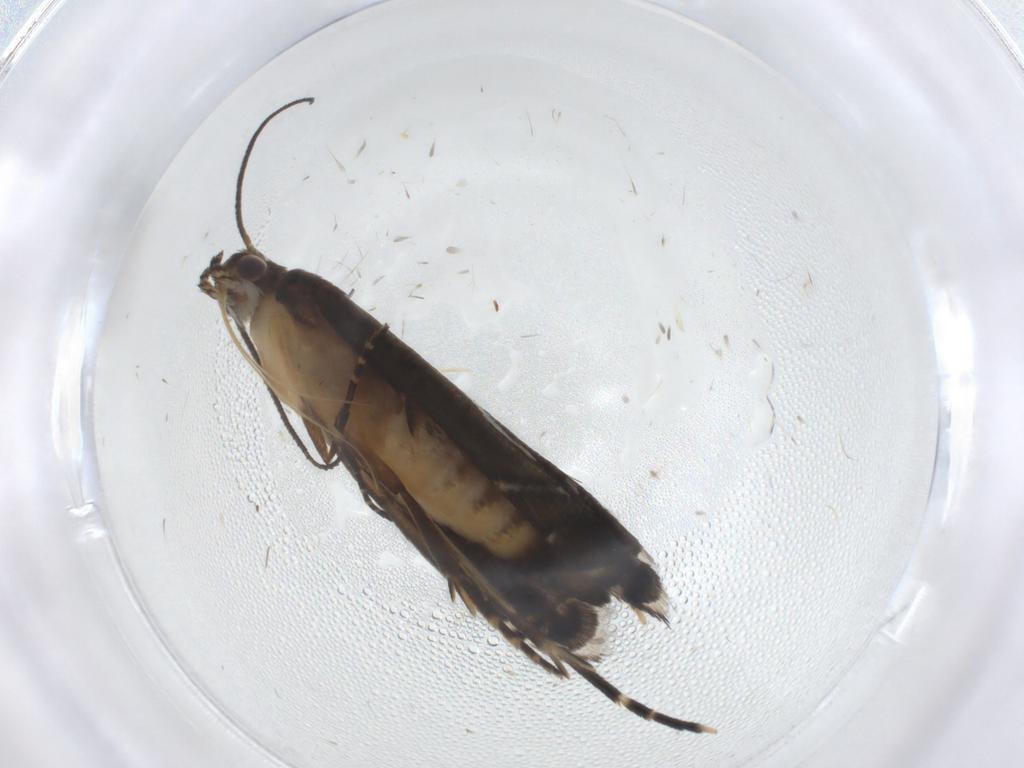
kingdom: Animalia
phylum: Arthropoda
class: Insecta
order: Lepidoptera
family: Glyphipterigidae
